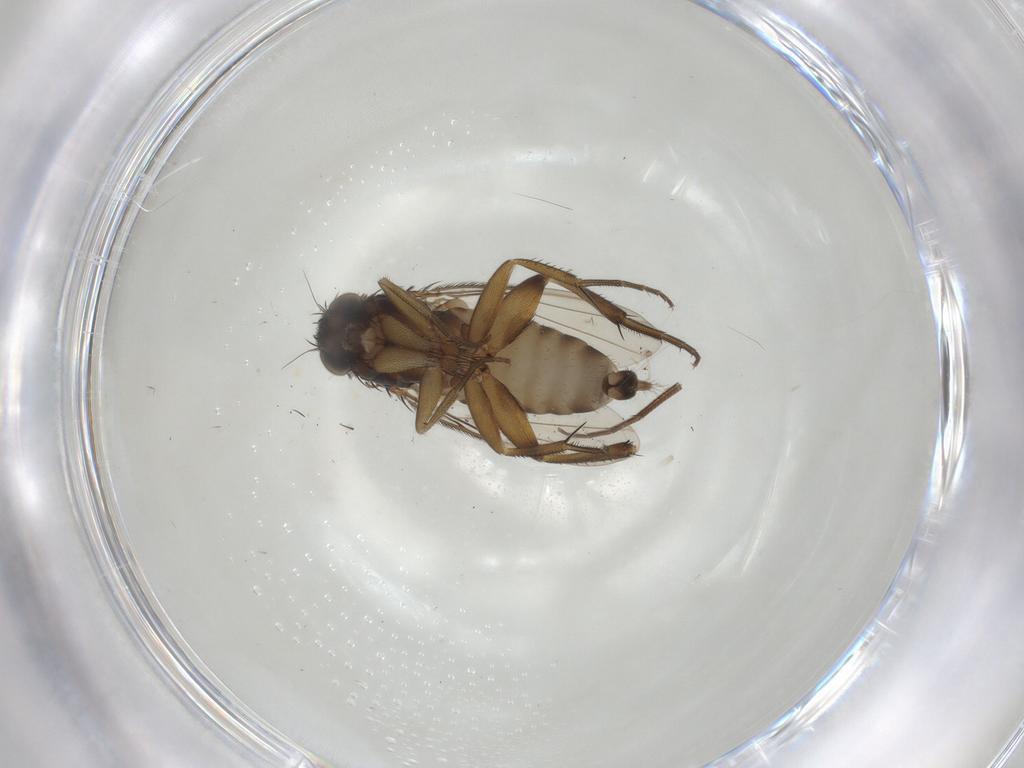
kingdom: Animalia
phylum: Arthropoda
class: Insecta
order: Diptera
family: Phoridae
